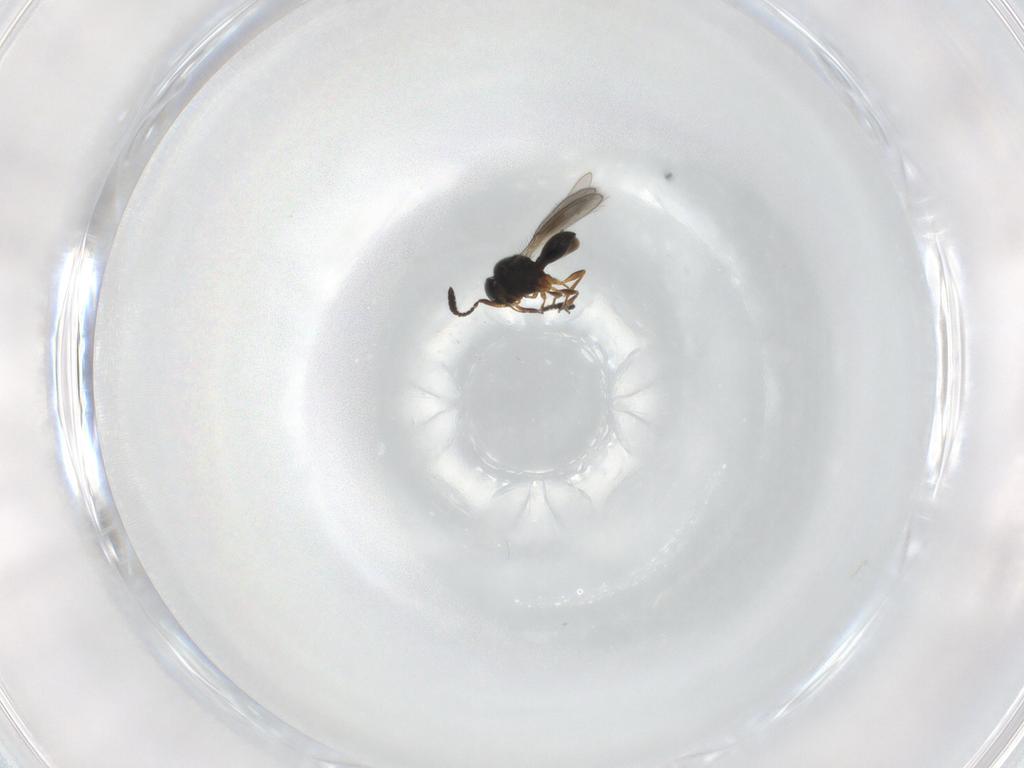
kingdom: Animalia
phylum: Arthropoda
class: Insecta
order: Hymenoptera
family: Scelionidae
